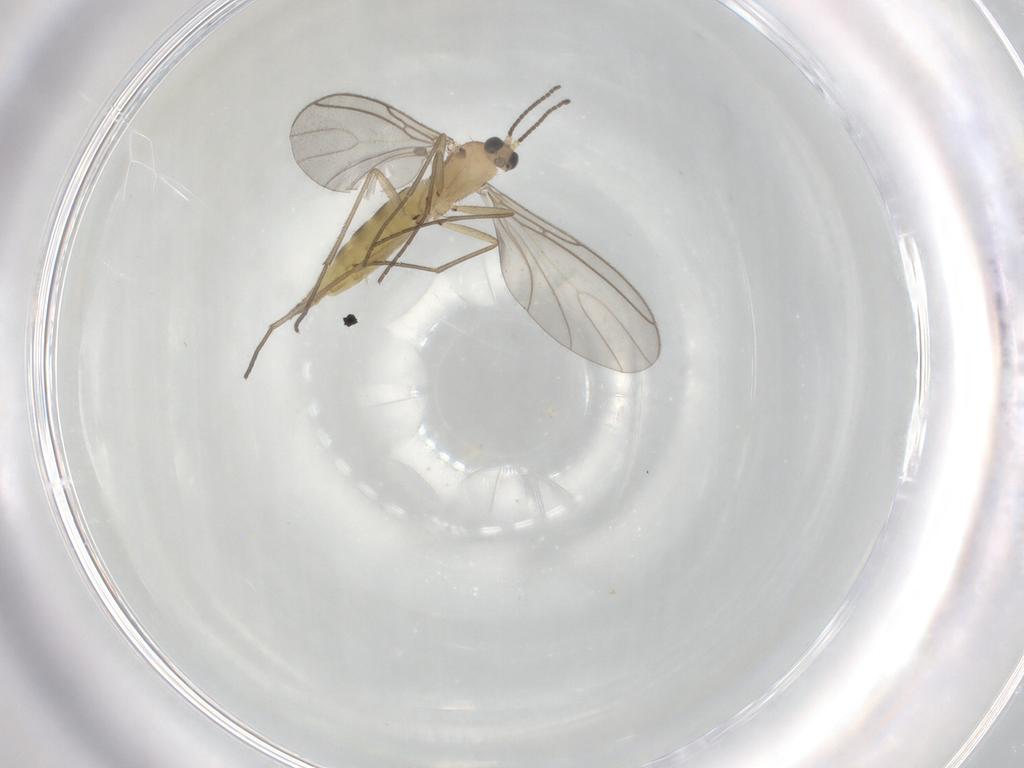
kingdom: Animalia
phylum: Arthropoda
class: Insecta
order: Diptera
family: Sciaridae
